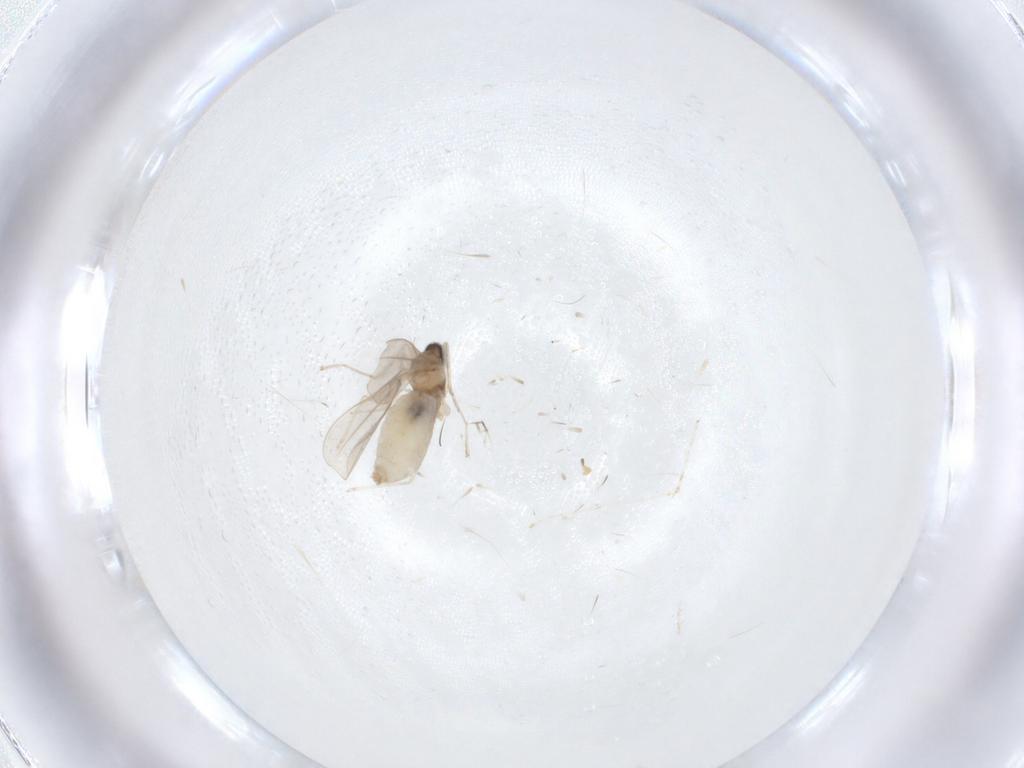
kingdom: Animalia
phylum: Arthropoda
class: Insecta
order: Diptera
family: Cecidomyiidae
